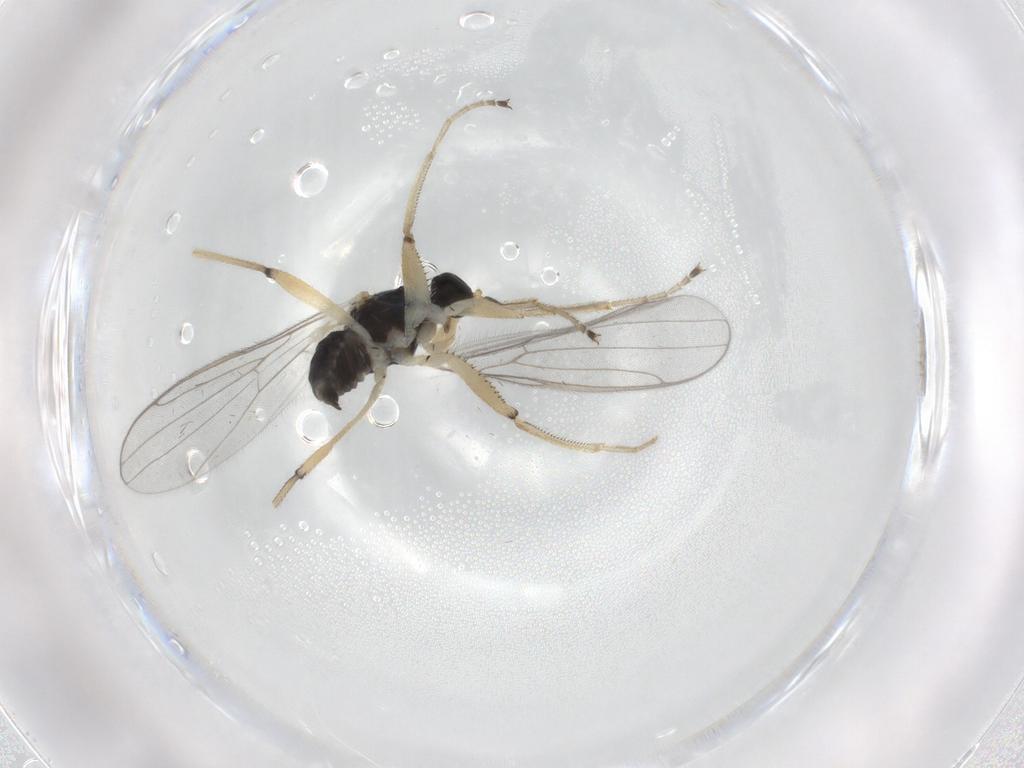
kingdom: Animalia
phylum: Arthropoda
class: Insecta
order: Diptera
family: Hybotidae
